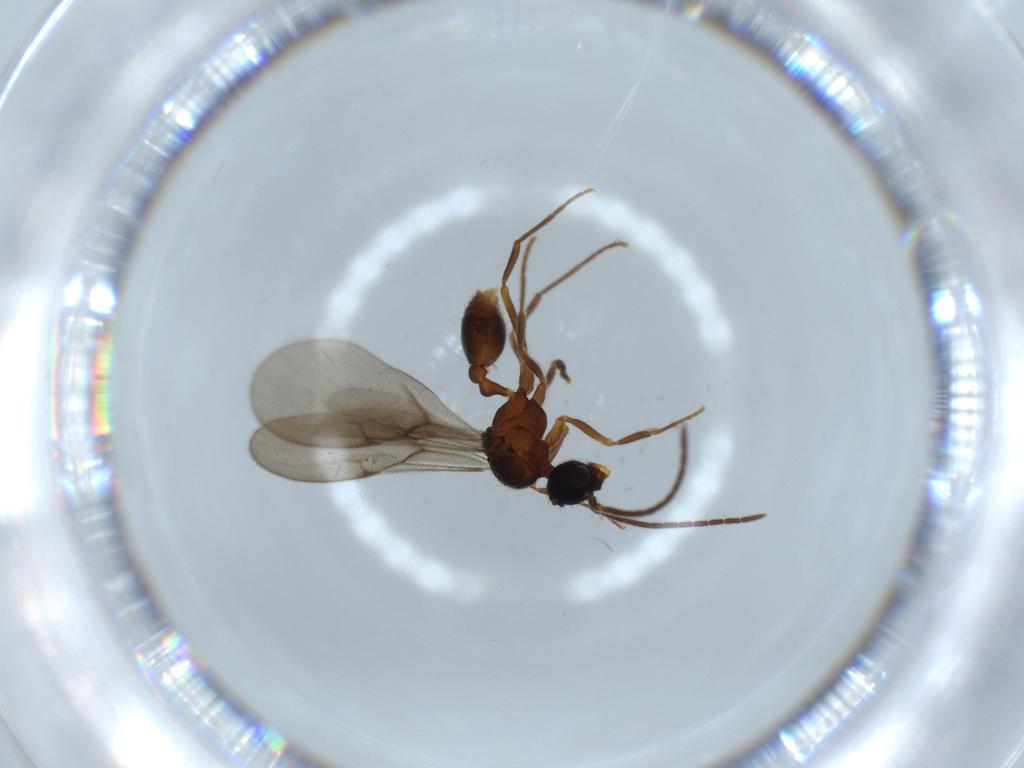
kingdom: Animalia
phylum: Arthropoda
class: Insecta
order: Hymenoptera
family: Formicidae
